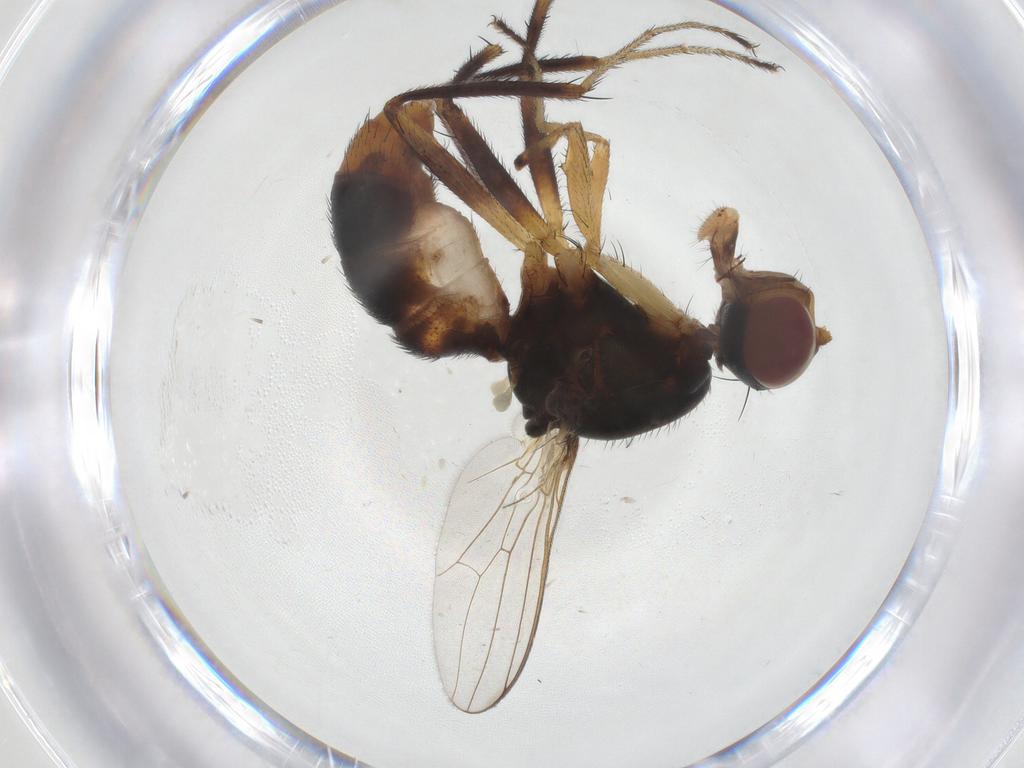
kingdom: Animalia
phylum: Arthropoda
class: Insecta
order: Diptera
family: Sepsidae
